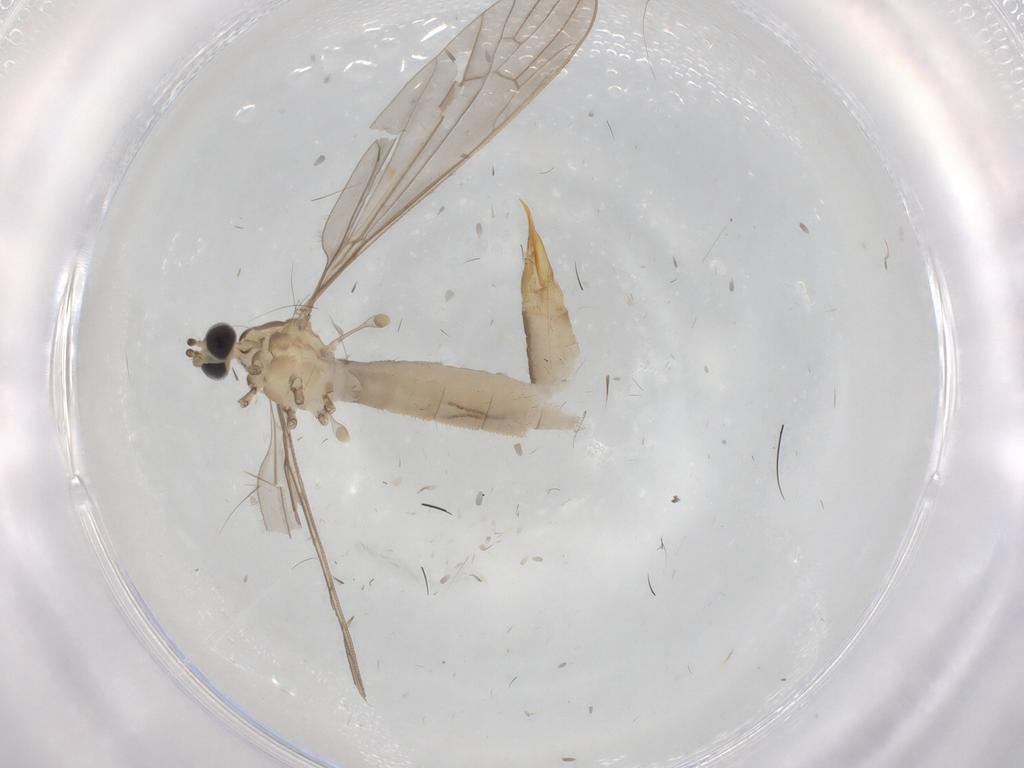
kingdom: Animalia
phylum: Arthropoda
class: Insecta
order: Diptera
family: Limoniidae
